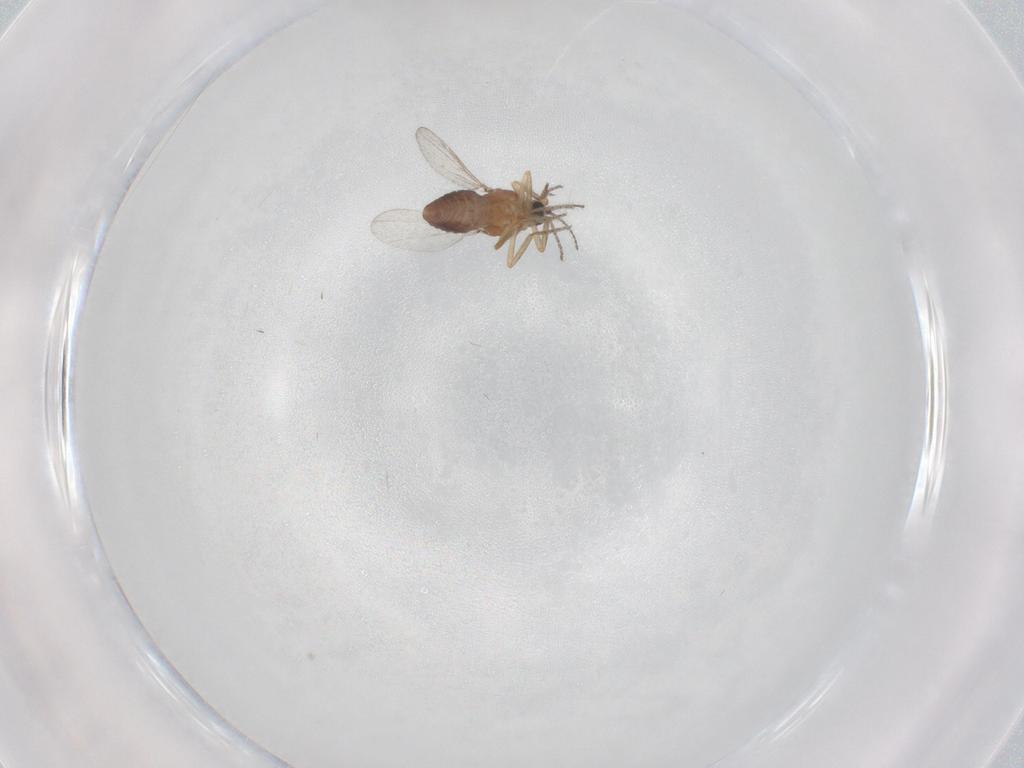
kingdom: Animalia
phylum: Arthropoda
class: Insecta
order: Diptera
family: Ceratopogonidae
